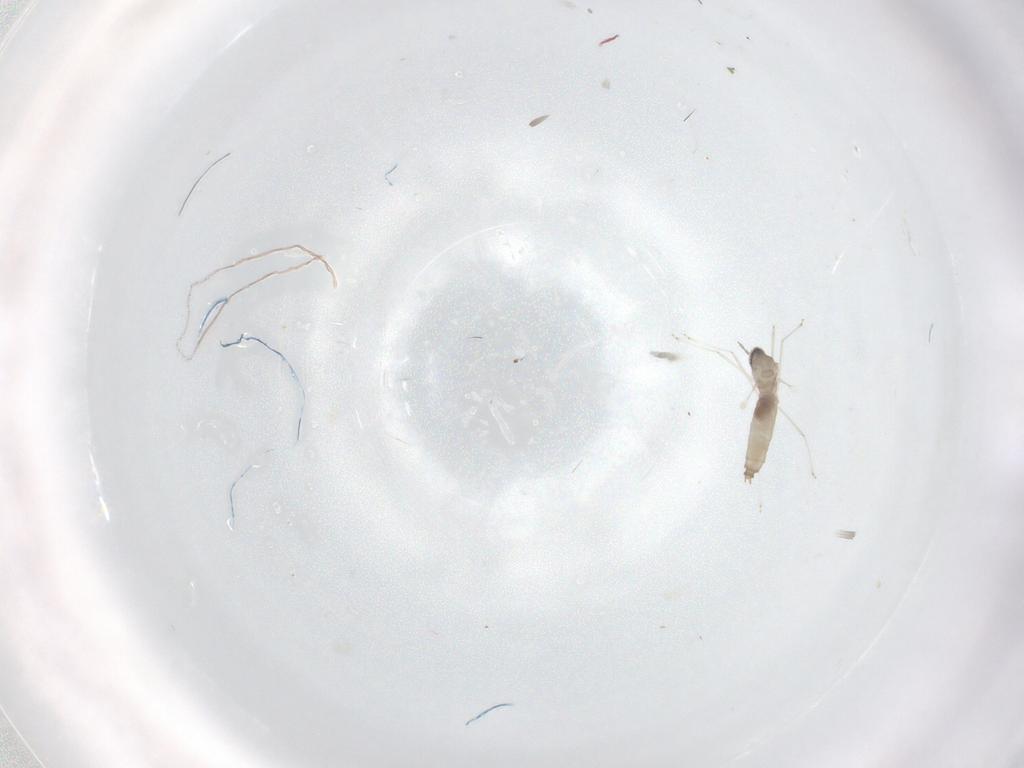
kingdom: Animalia
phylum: Arthropoda
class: Insecta
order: Diptera
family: Cecidomyiidae
